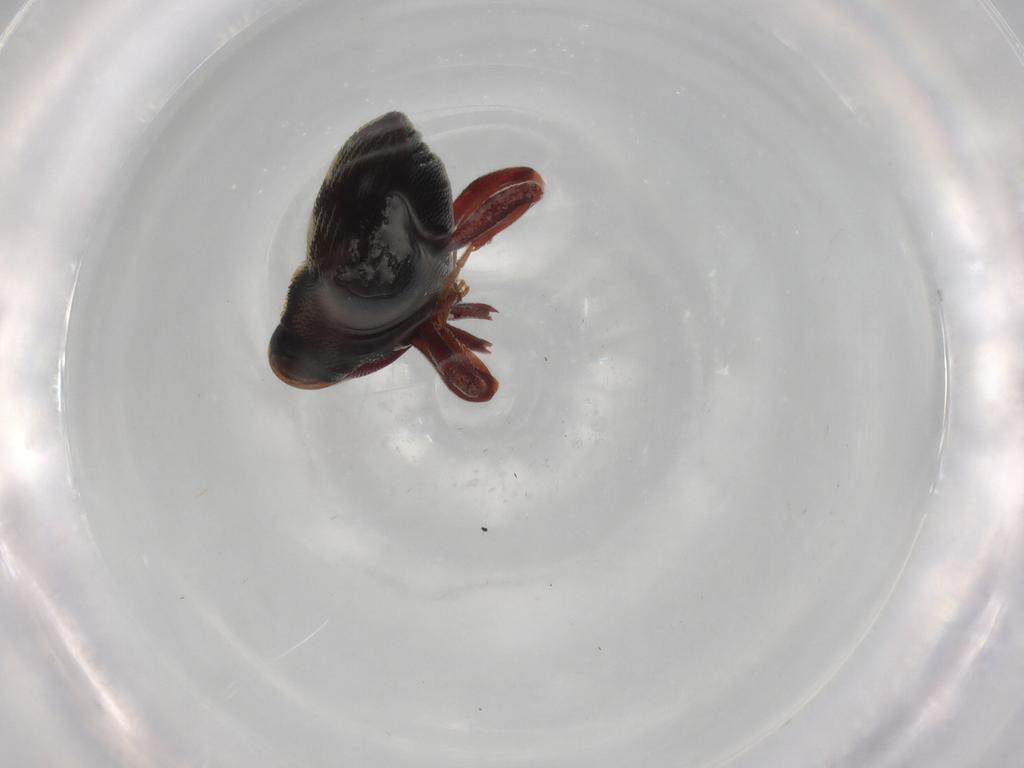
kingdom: Animalia
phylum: Arthropoda
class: Insecta
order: Coleoptera
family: Curculionidae
